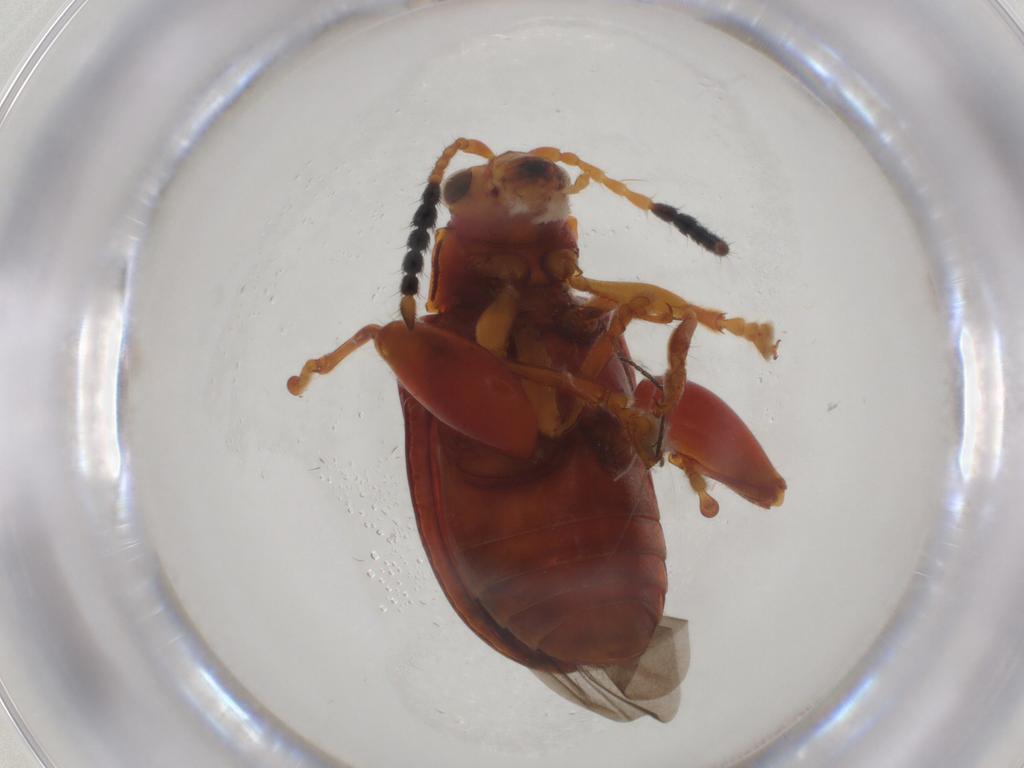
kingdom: Animalia
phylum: Arthropoda
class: Insecta
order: Coleoptera
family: Chrysomelidae
